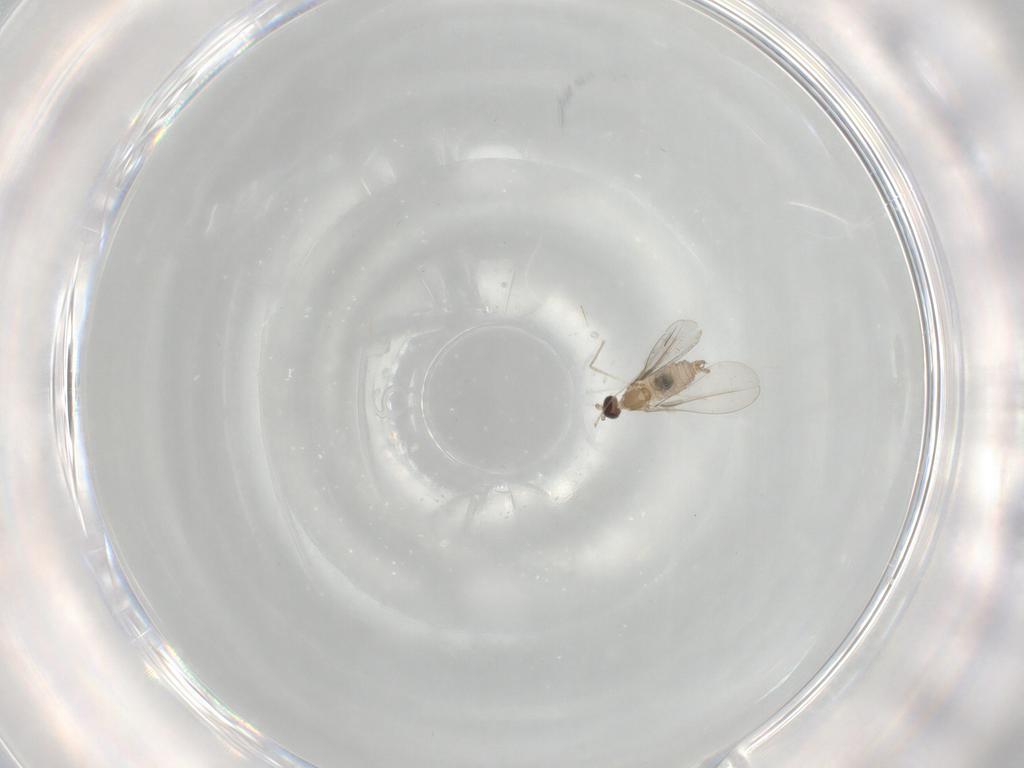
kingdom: Animalia
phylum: Arthropoda
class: Insecta
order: Diptera
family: Cecidomyiidae
